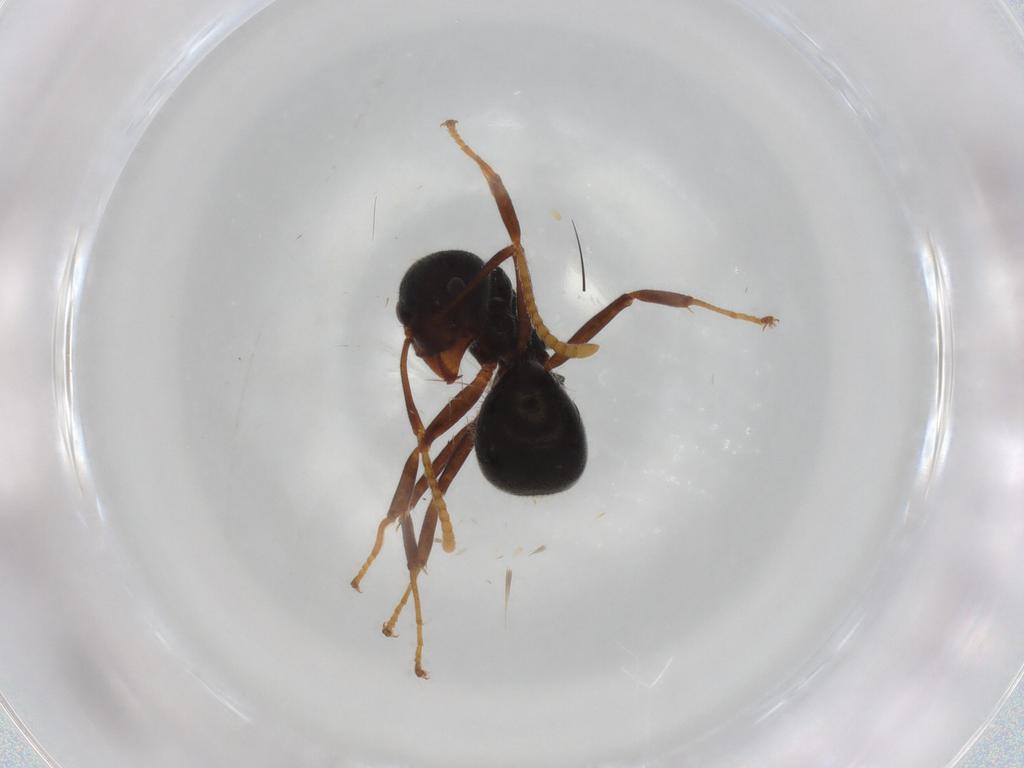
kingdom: Animalia
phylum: Arthropoda
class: Insecta
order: Hymenoptera
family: Formicidae
